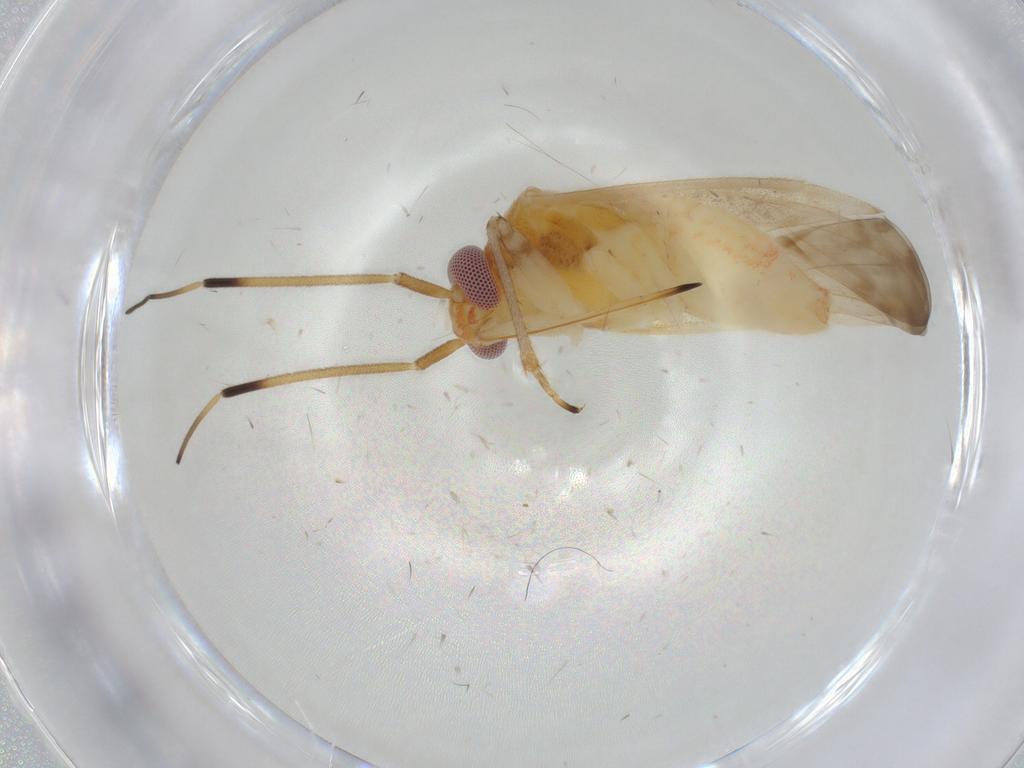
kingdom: Animalia
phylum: Arthropoda
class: Insecta
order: Hemiptera
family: Miridae
